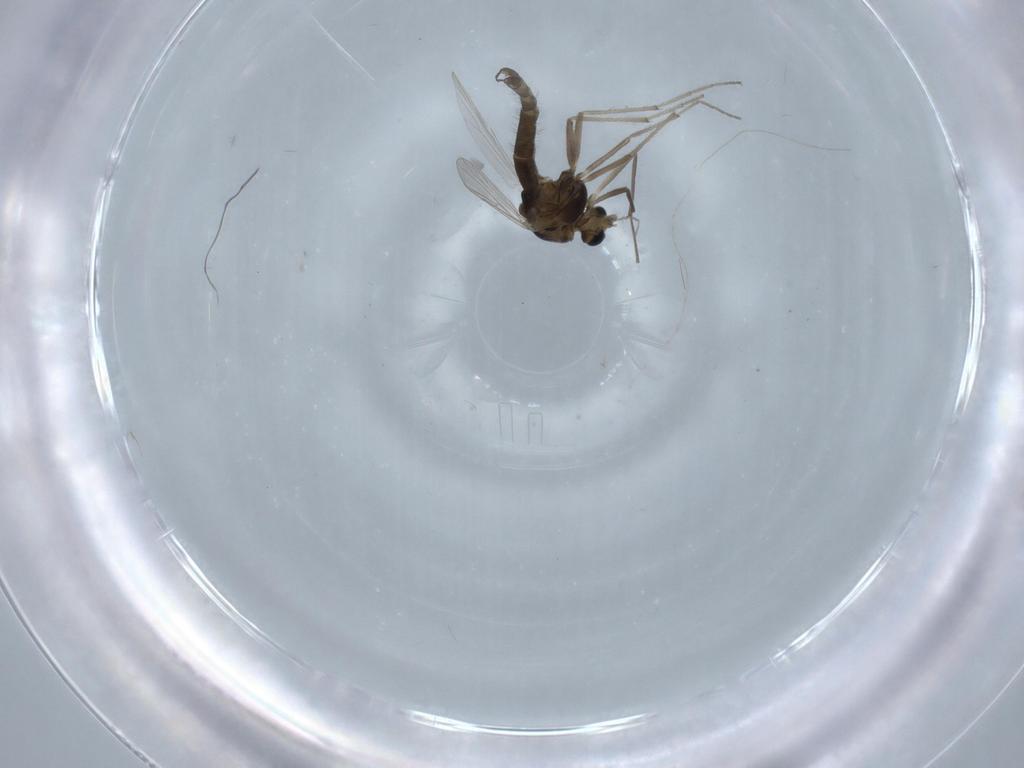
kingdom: Animalia
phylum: Arthropoda
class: Insecta
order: Diptera
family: Chironomidae
